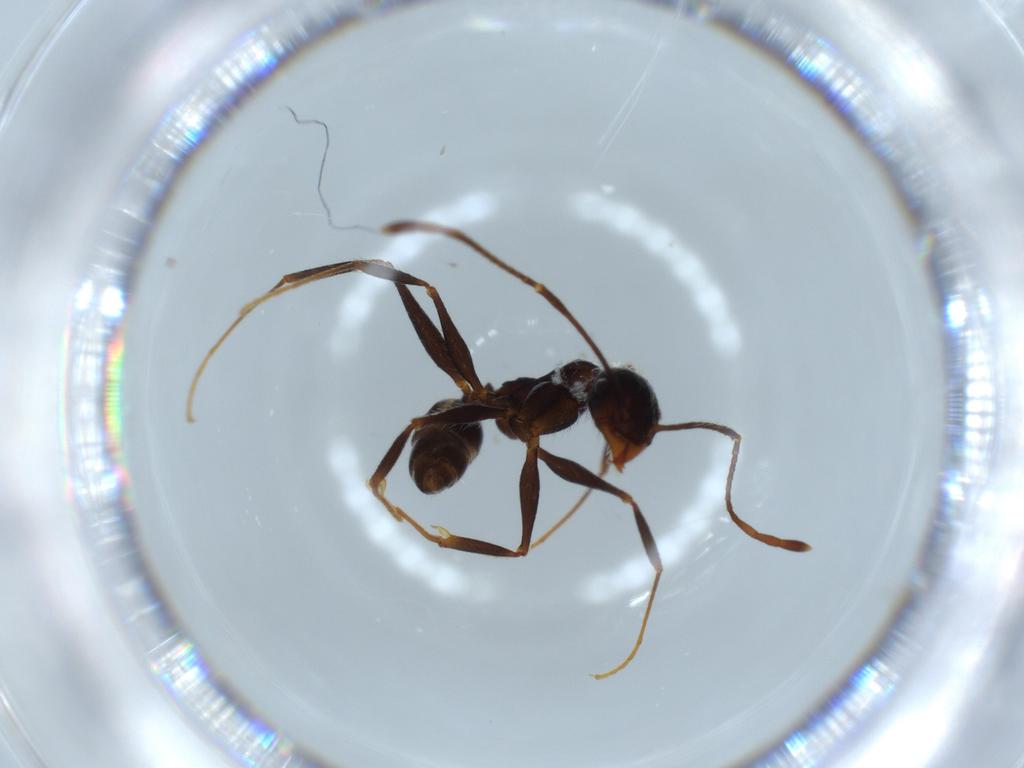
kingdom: Animalia
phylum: Arthropoda
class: Insecta
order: Hymenoptera
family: Formicidae
